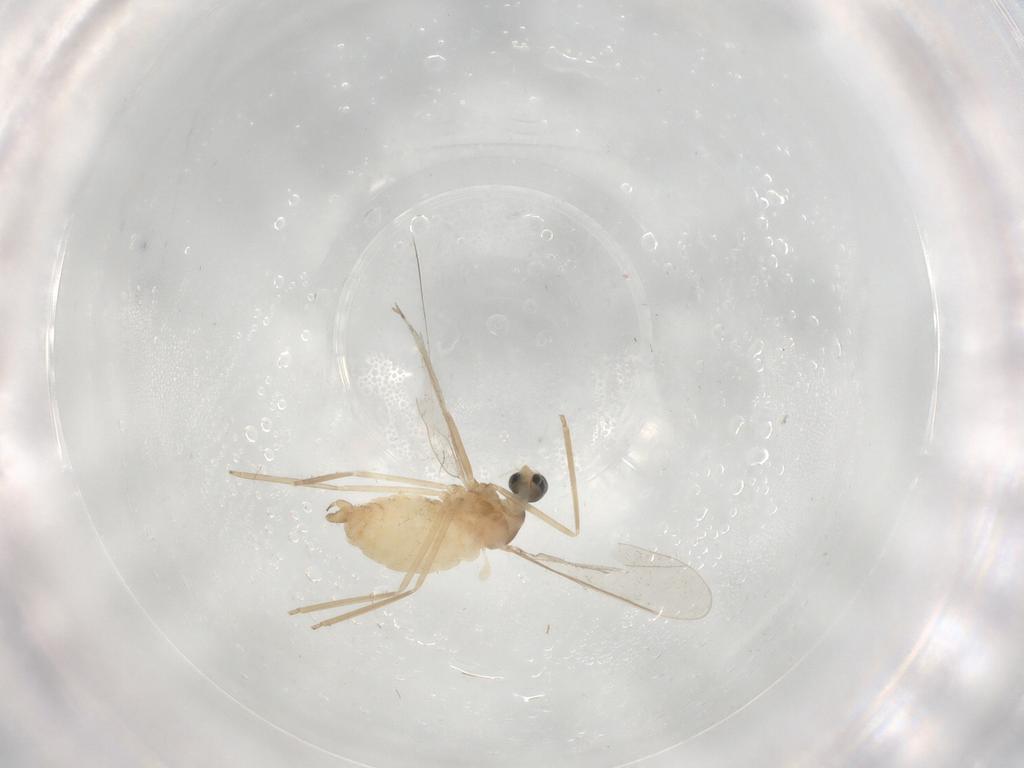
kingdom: Animalia
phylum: Arthropoda
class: Insecta
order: Diptera
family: Cecidomyiidae
